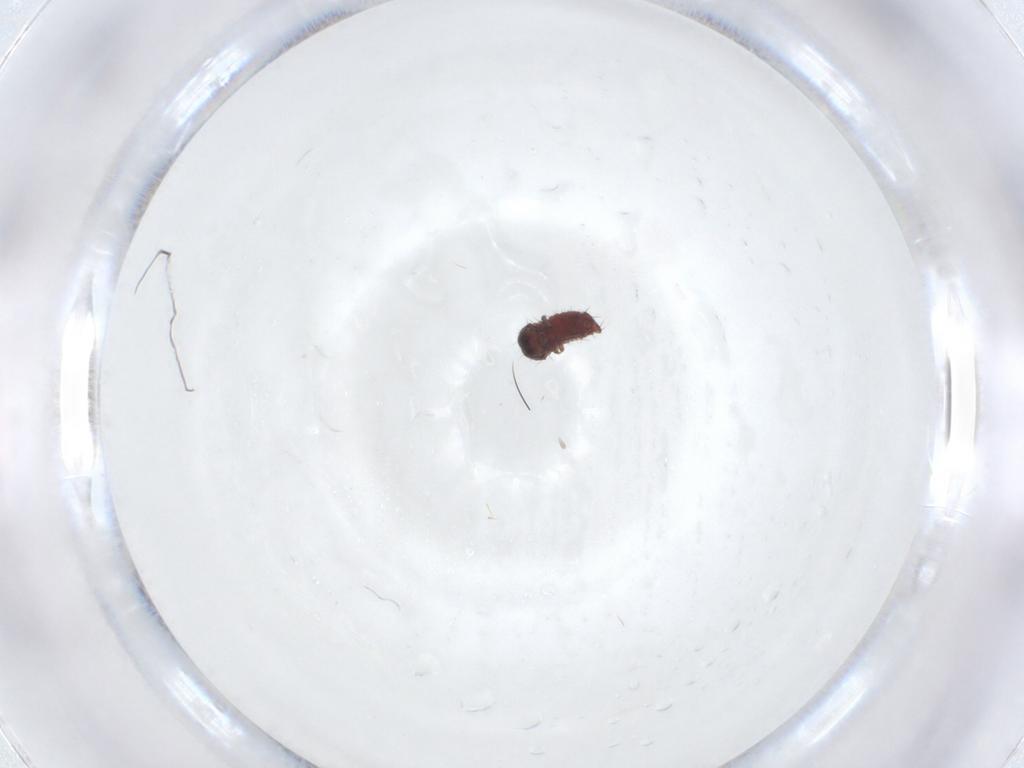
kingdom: Animalia
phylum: Arthropoda
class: Insecta
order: Coleoptera
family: Chrysomelidae
